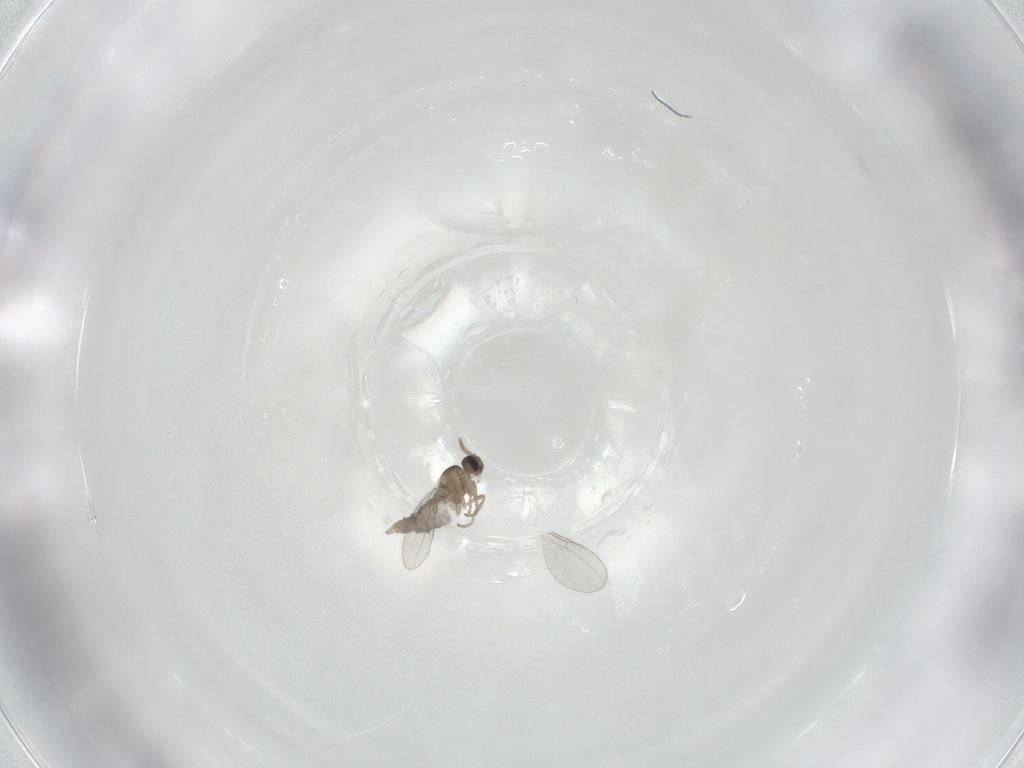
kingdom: Animalia
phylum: Arthropoda
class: Insecta
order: Diptera
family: Cecidomyiidae
